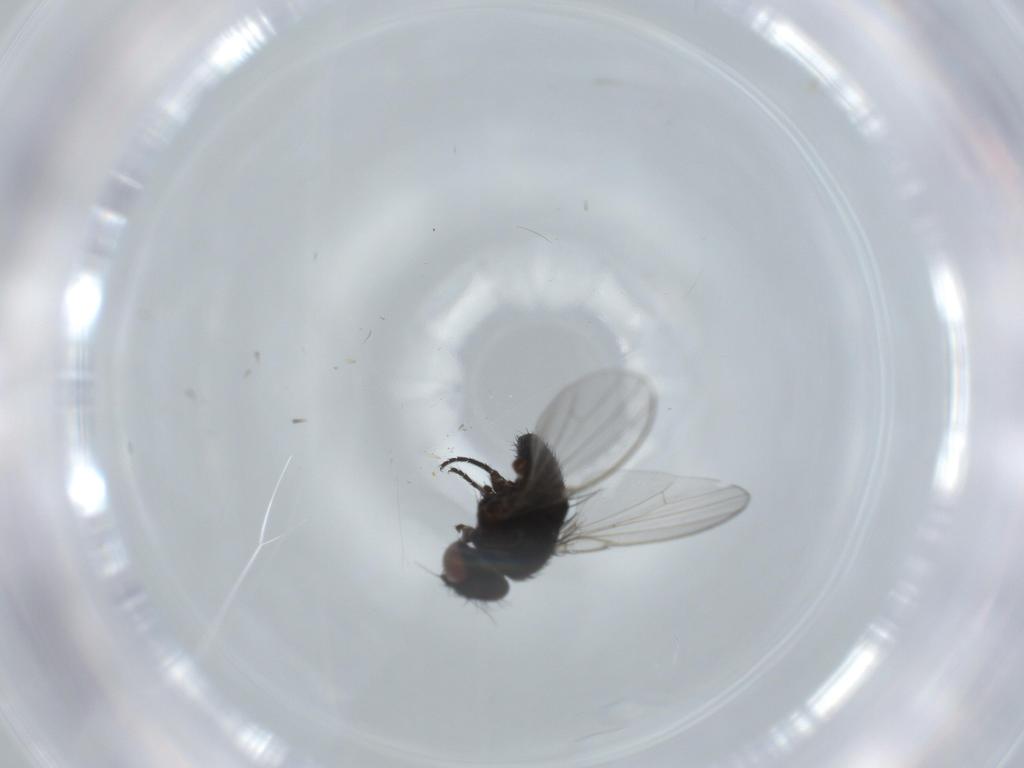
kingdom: Animalia
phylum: Arthropoda
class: Insecta
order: Diptera
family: Milichiidae
